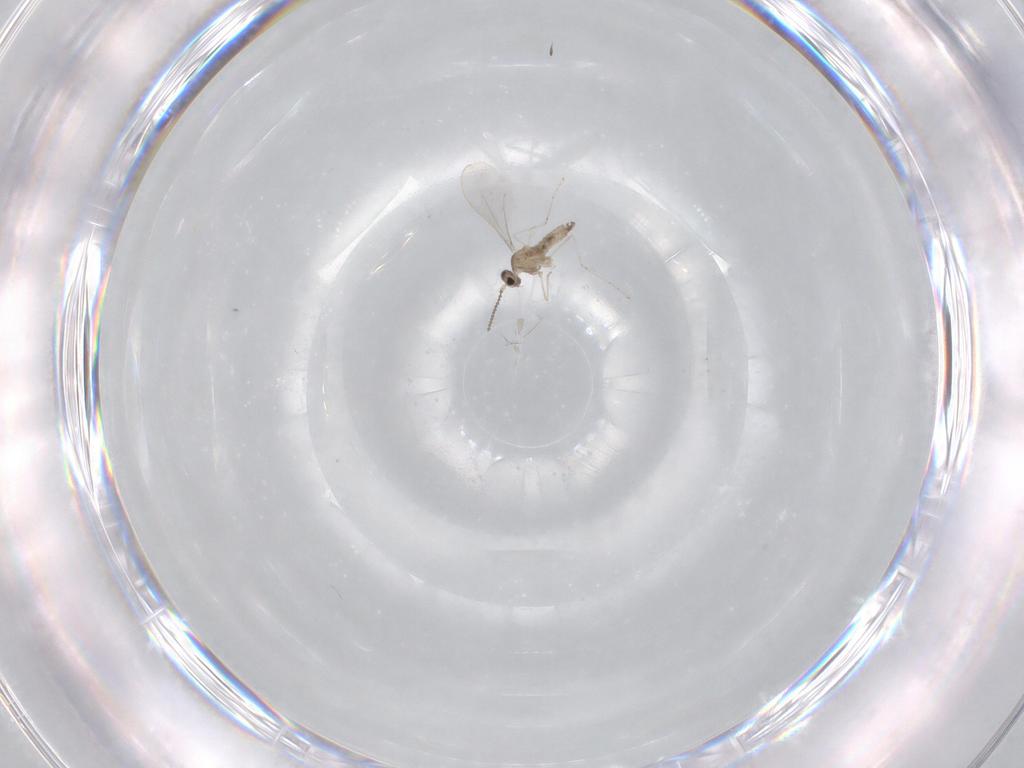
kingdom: Animalia
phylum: Arthropoda
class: Insecta
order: Diptera
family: Cecidomyiidae
